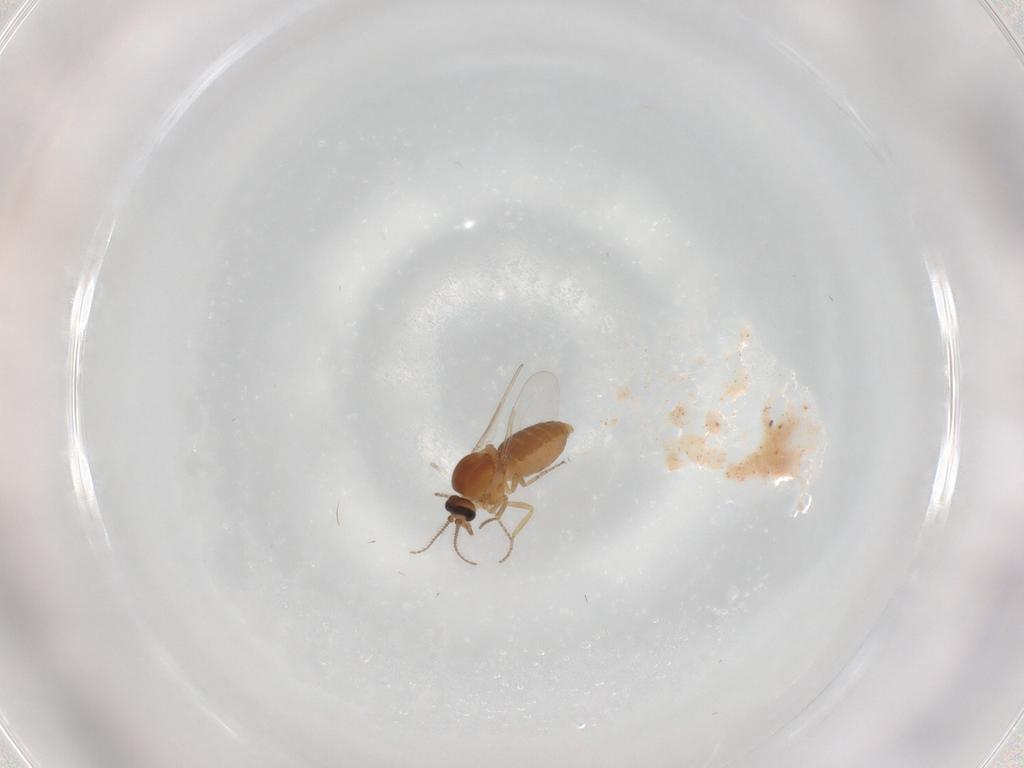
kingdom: Animalia
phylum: Arthropoda
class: Insecta
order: Diptera
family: Ceratopogonidae
